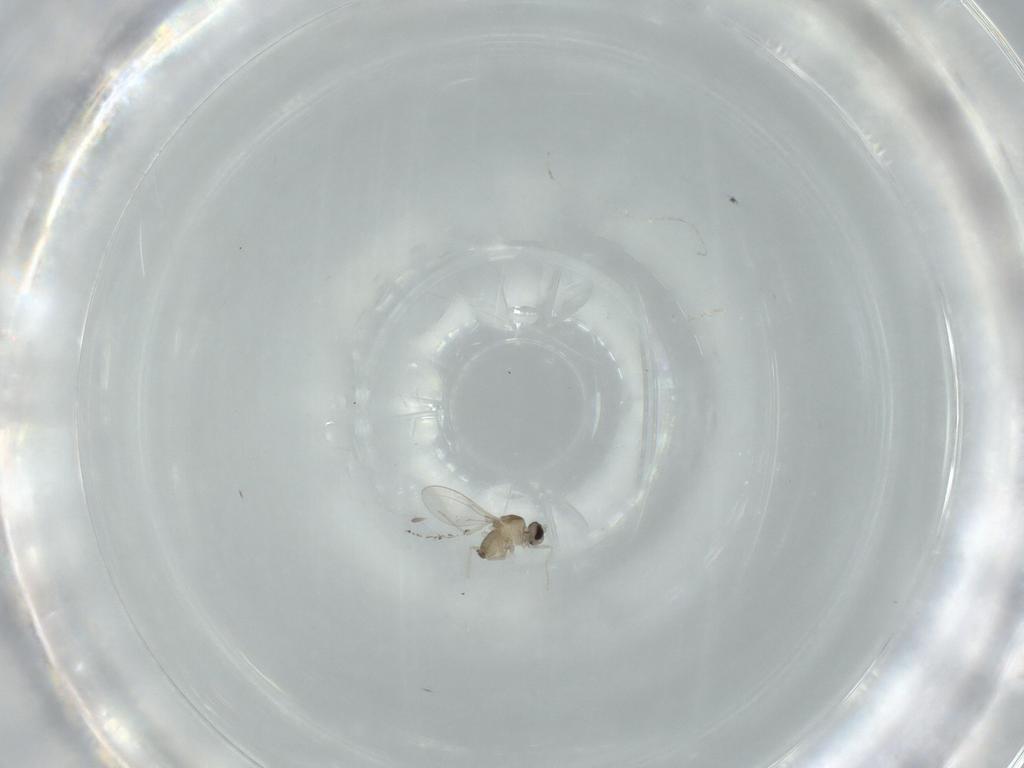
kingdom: Animalia
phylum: Arthropoda
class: Insecta
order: Diptera
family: Cecidomyiidae
